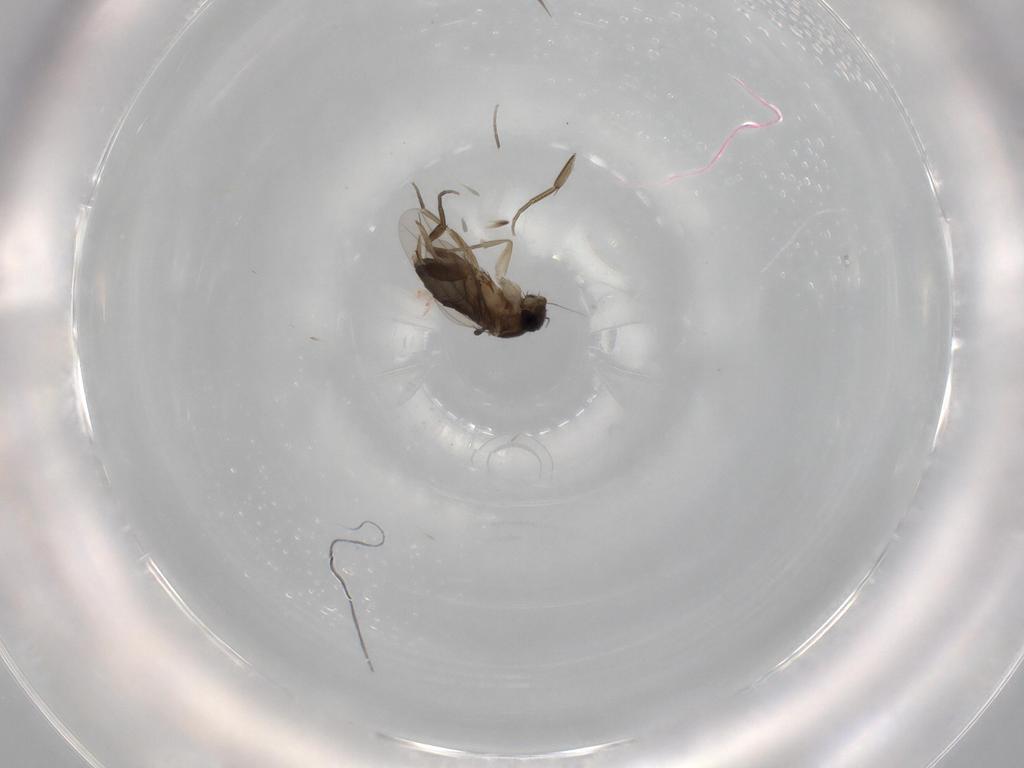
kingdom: Animalia
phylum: Arthropoda
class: Insecta
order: Diptera
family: Phoridae
